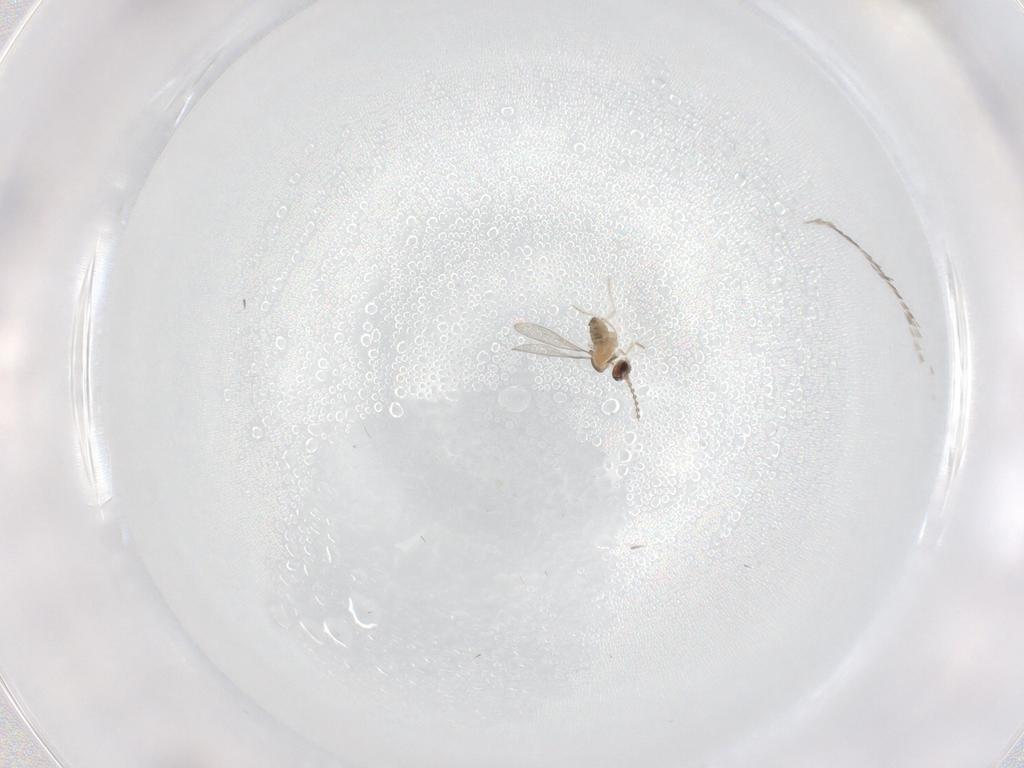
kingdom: Animalia
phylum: Arthropoda
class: Insecta
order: Diptera
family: Cecidomyiidae
